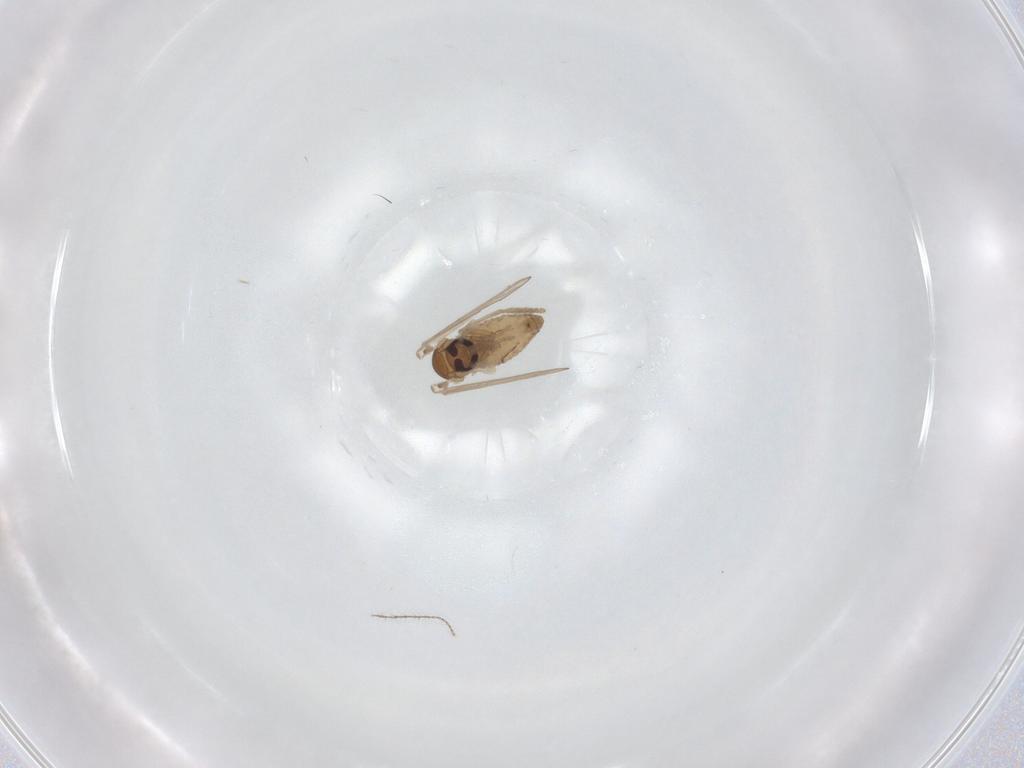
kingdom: Animalia
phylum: Arthropoda
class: Insecta
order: Diptera
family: Psychodidae
